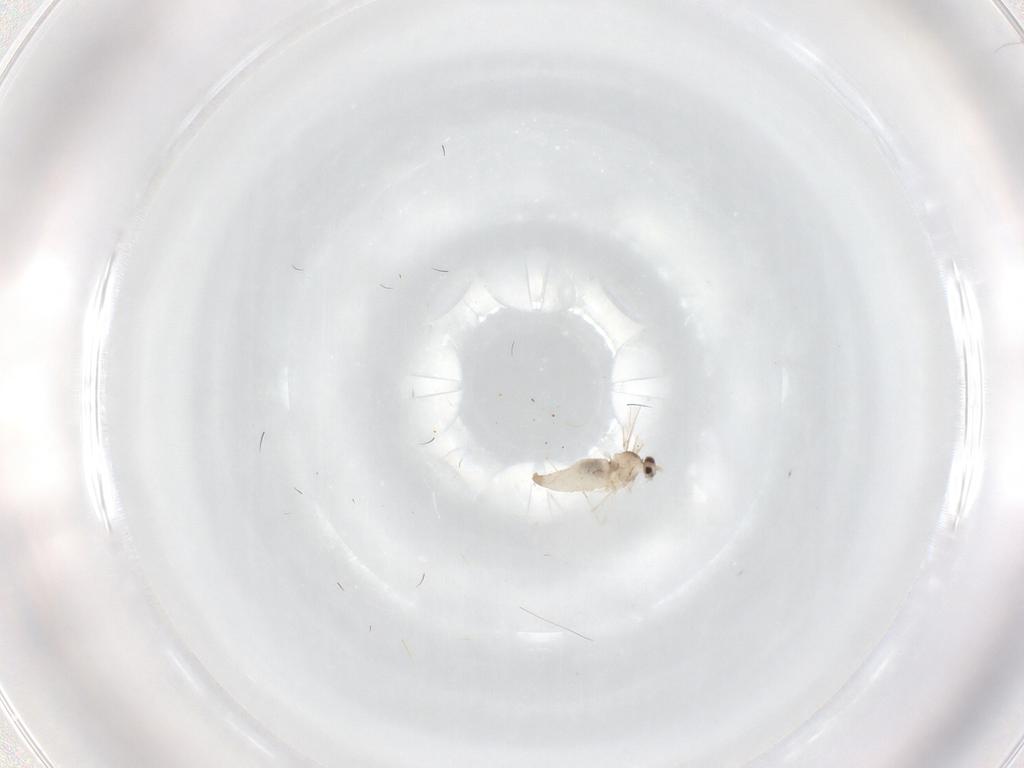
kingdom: Animalia
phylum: Arthropoda
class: Insecta
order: Diptera
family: Cecidomyiidae
